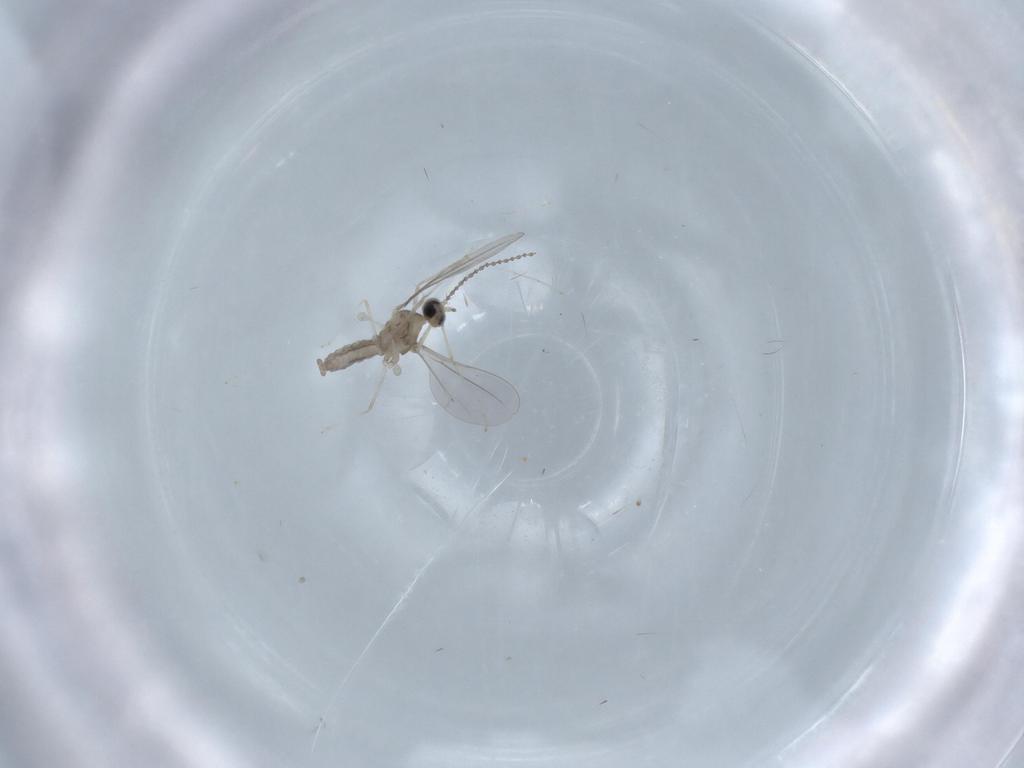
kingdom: Animalia
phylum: Arthropoda
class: Insecta
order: Diptera
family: Cecidomyiidae
